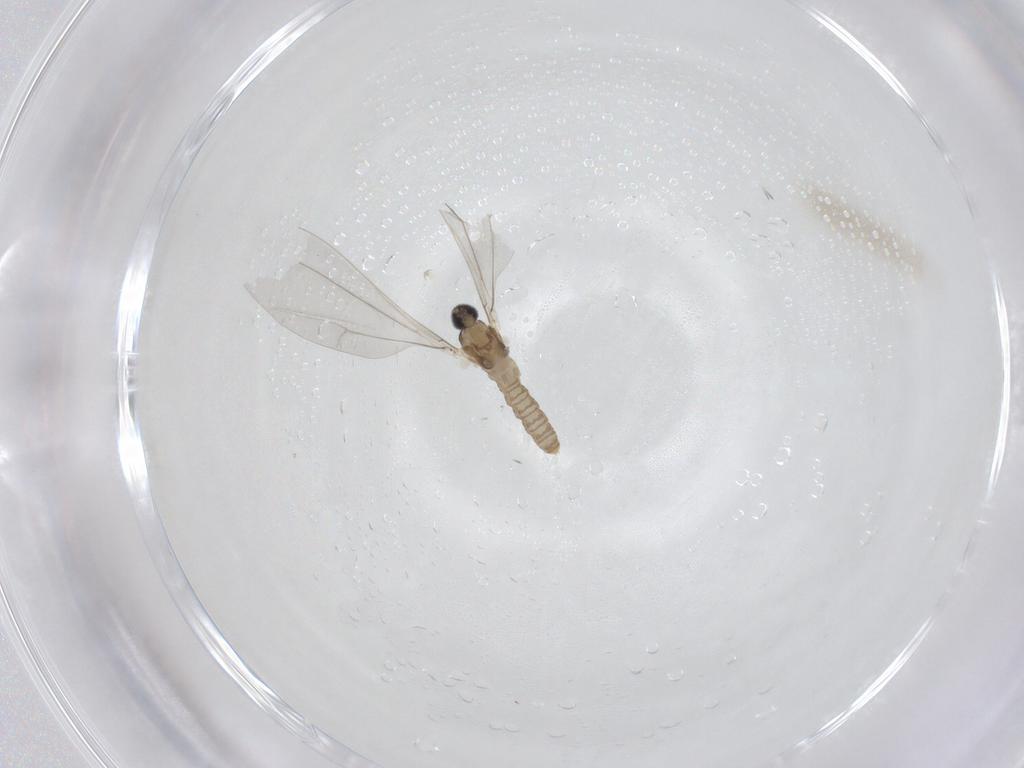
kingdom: Animalia
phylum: Arthropoda
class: Insecta
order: Diptera
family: Cecidomyiidae
